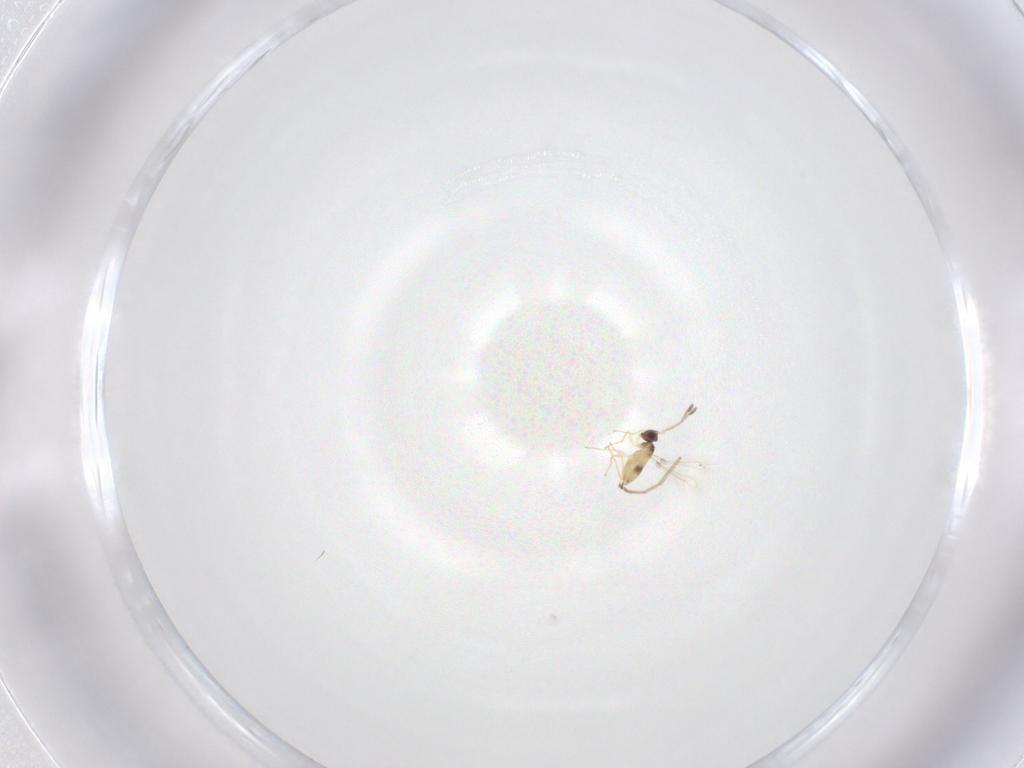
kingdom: Animalia
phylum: Arthropoda
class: Insecta
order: Hymenoptera
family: Mymaridae
